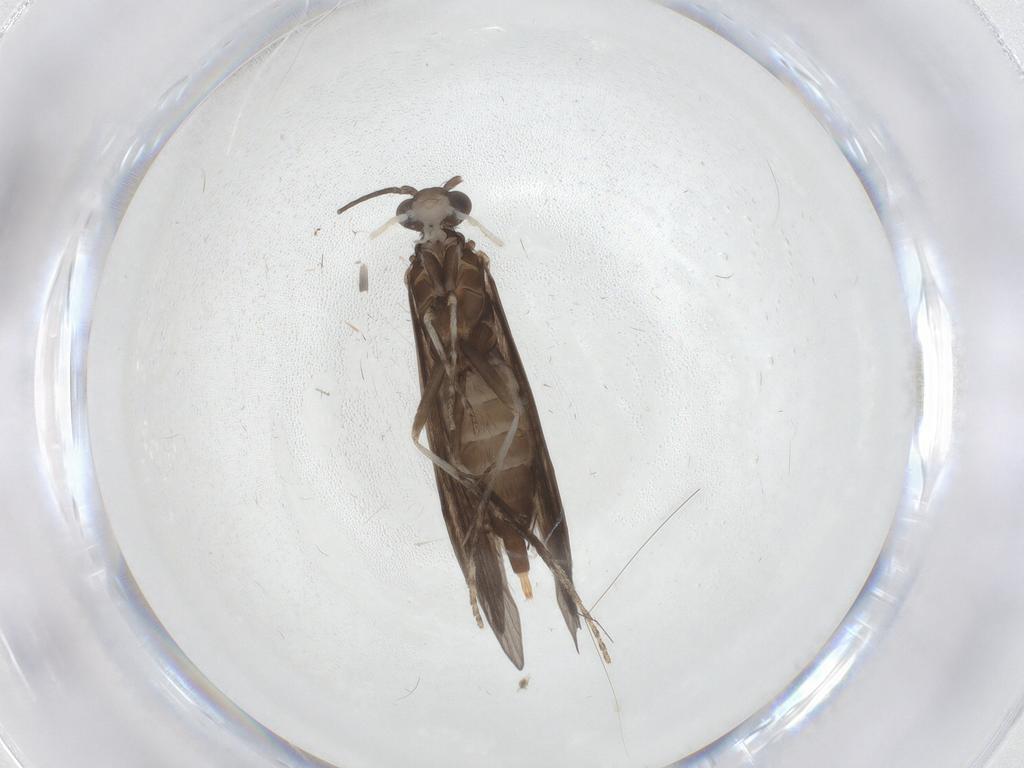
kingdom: Animalia
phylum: Arthropoda
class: Insecta
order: Trichoptera
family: Xiphocentronidae
